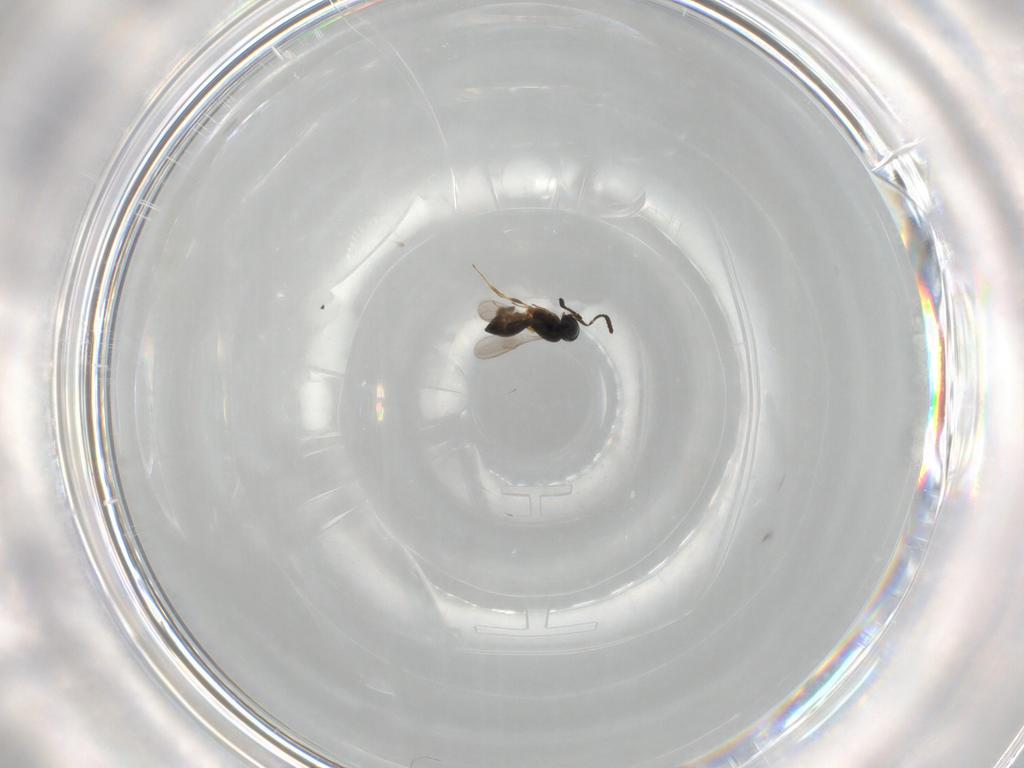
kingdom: Animalia
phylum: Arthropoda
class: Insecta
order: Hymenoptera
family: Scelionidae
